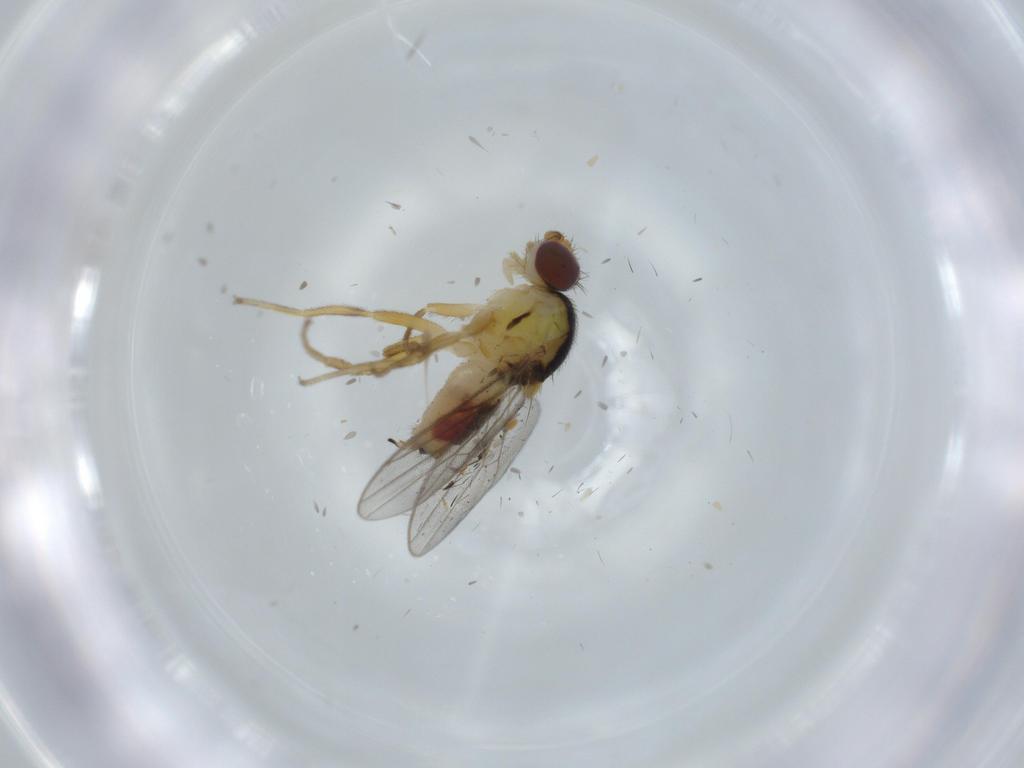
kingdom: Animalia
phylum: Arthropoda
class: Insecta
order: Diptera
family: Chloropidae
